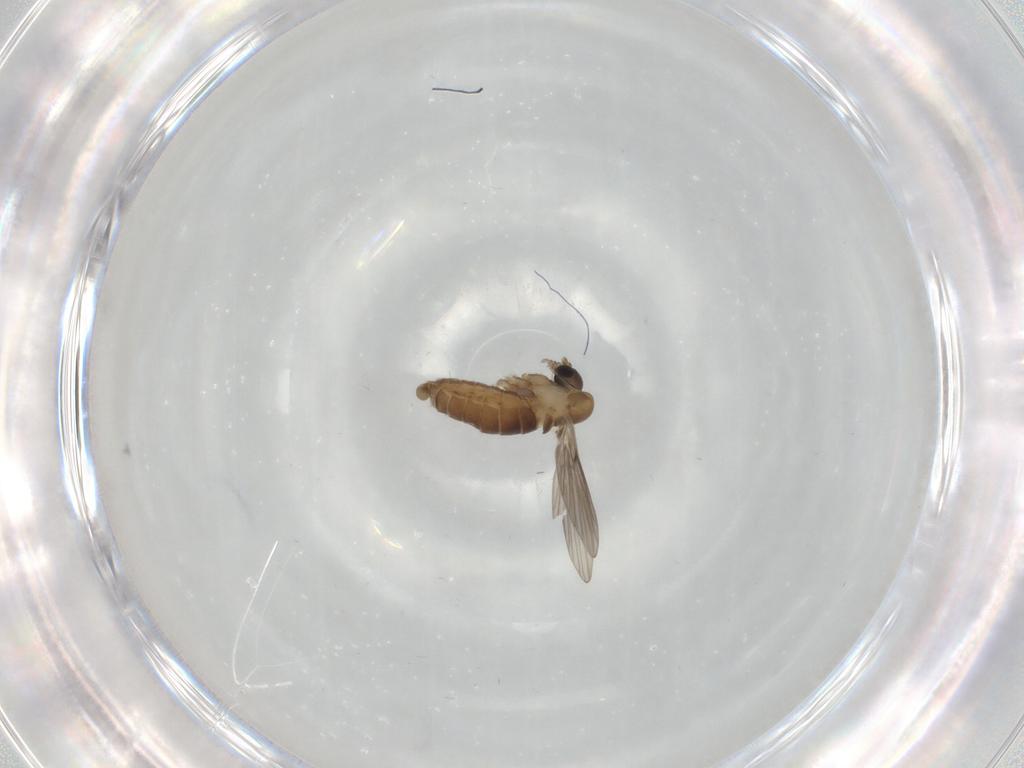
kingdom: Animalia
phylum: Arthropoda
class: Insecta
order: Diptera
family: Psychodidae
